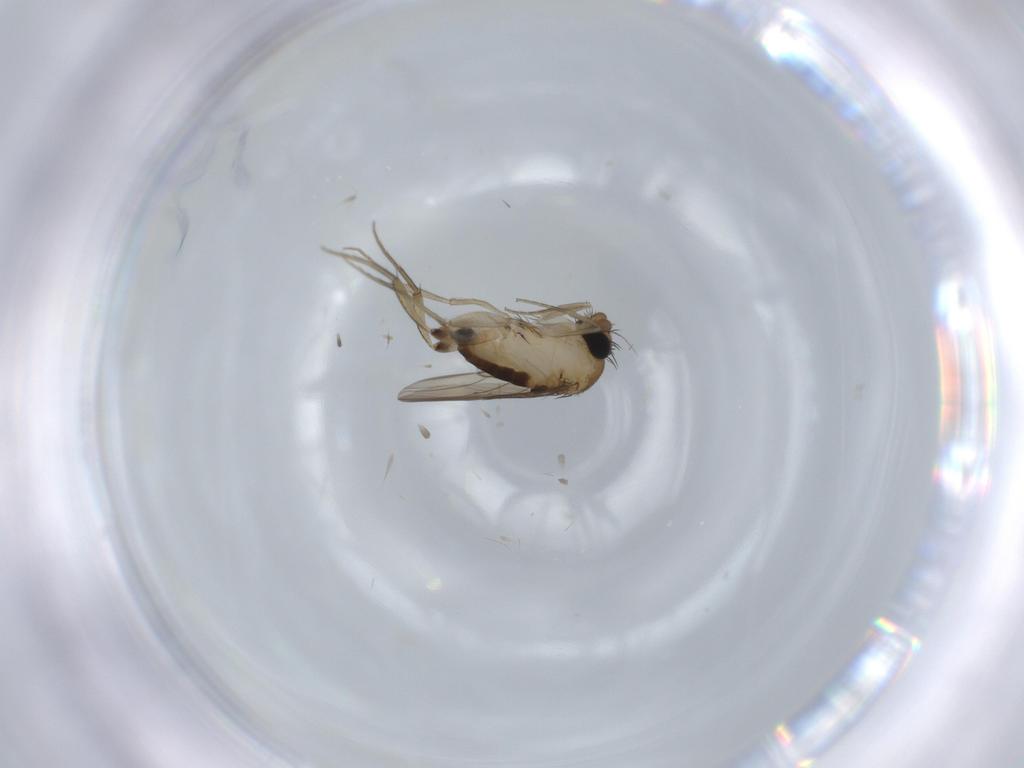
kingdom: Animalia
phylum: Arthropoda
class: Insecta
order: Diptera
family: Phoridae
